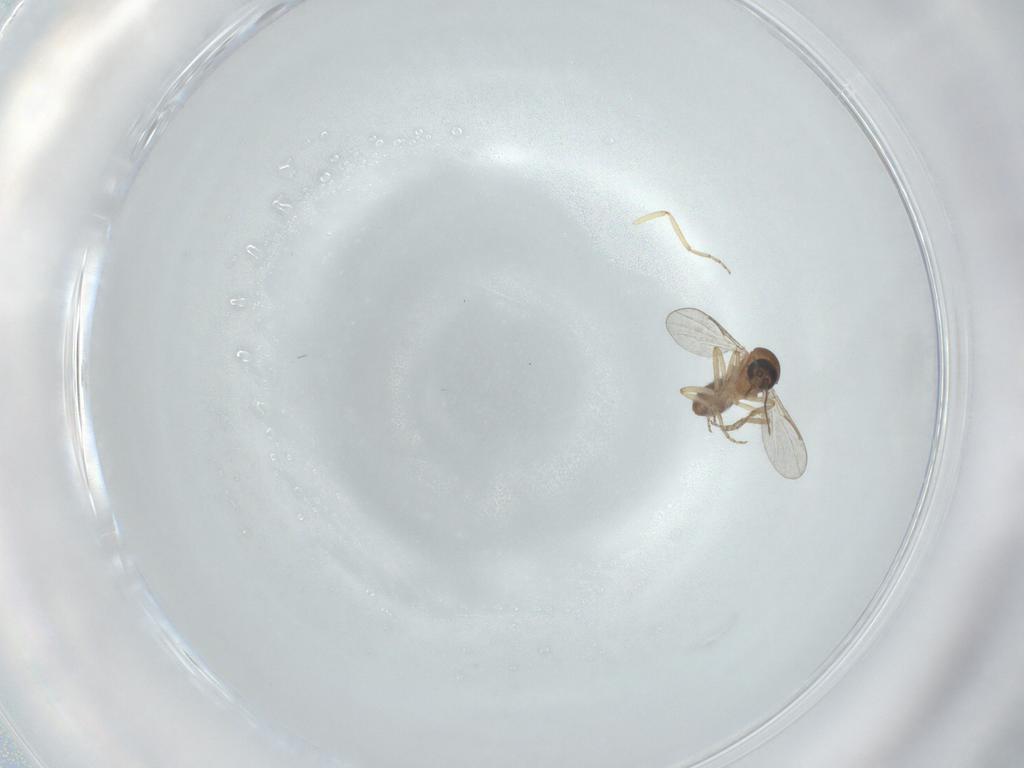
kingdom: Animalia
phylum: Arthropoda
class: Insecta
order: Diptera
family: Ceratopogonidae
